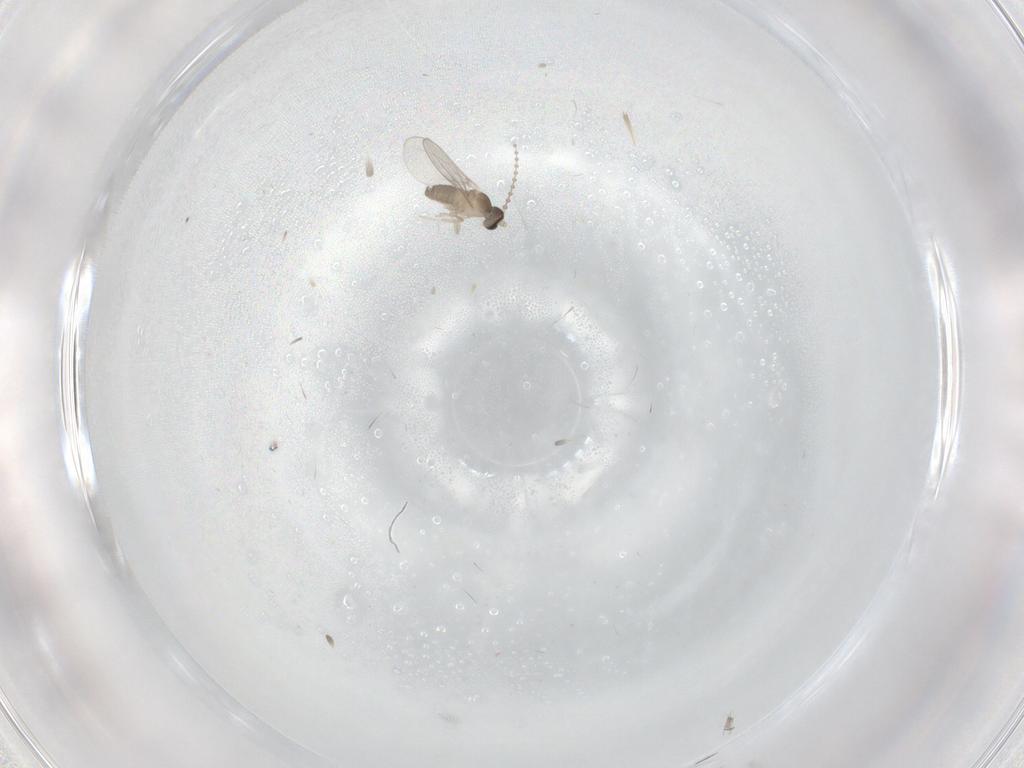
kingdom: Animalia
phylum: Arthropoda
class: Insecta
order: Diptera
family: Cecidomyiidae
